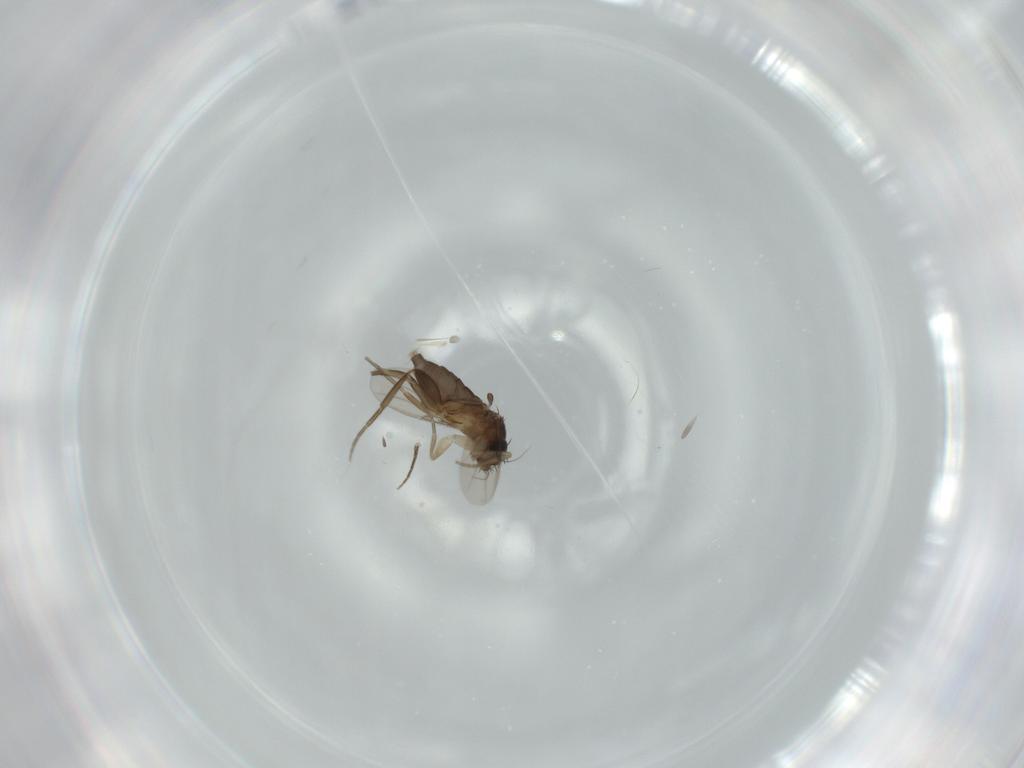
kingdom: Animalia
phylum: Arthropoda
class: Insecta
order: Diptera
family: Phoridae
